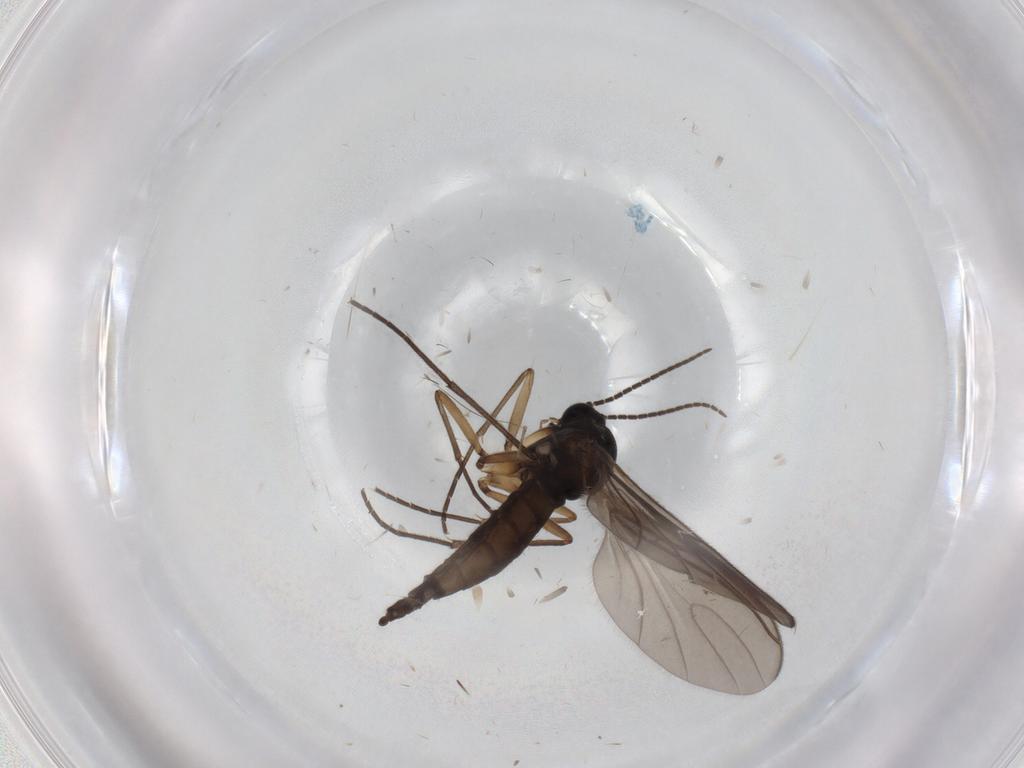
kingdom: Animalia
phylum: Arthropoda
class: Insecta
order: Diptera
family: Sciaridae
